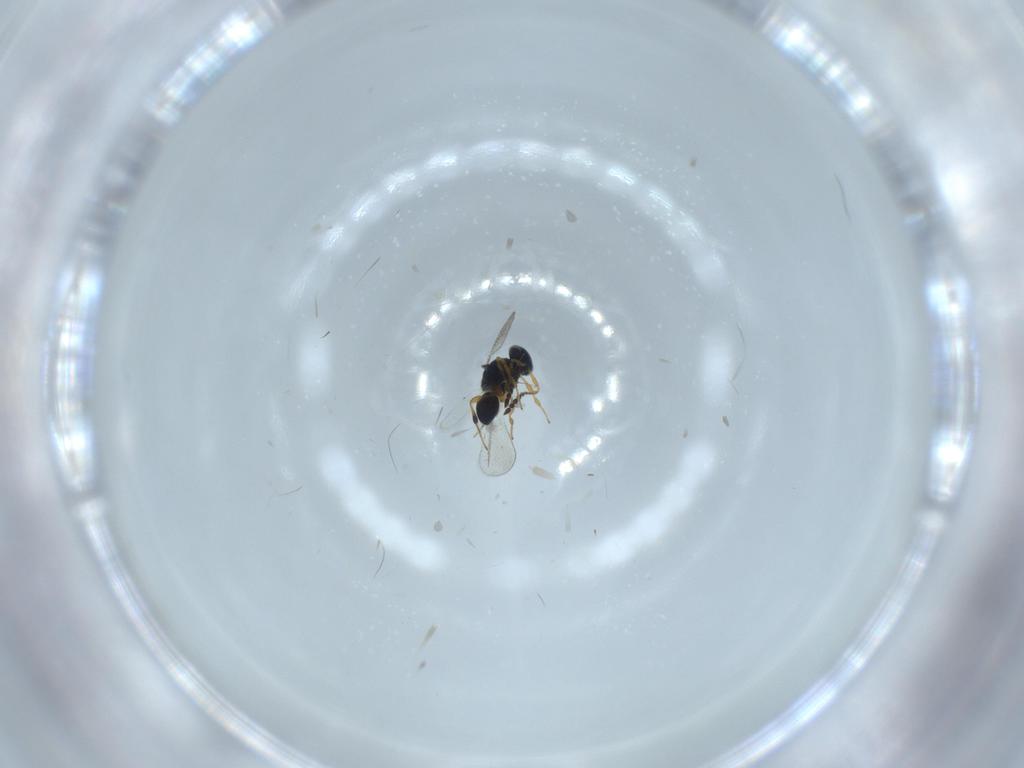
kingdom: Animalia
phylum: Arthropoda
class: Insecta
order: Hymenoptera
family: Platygastridae
